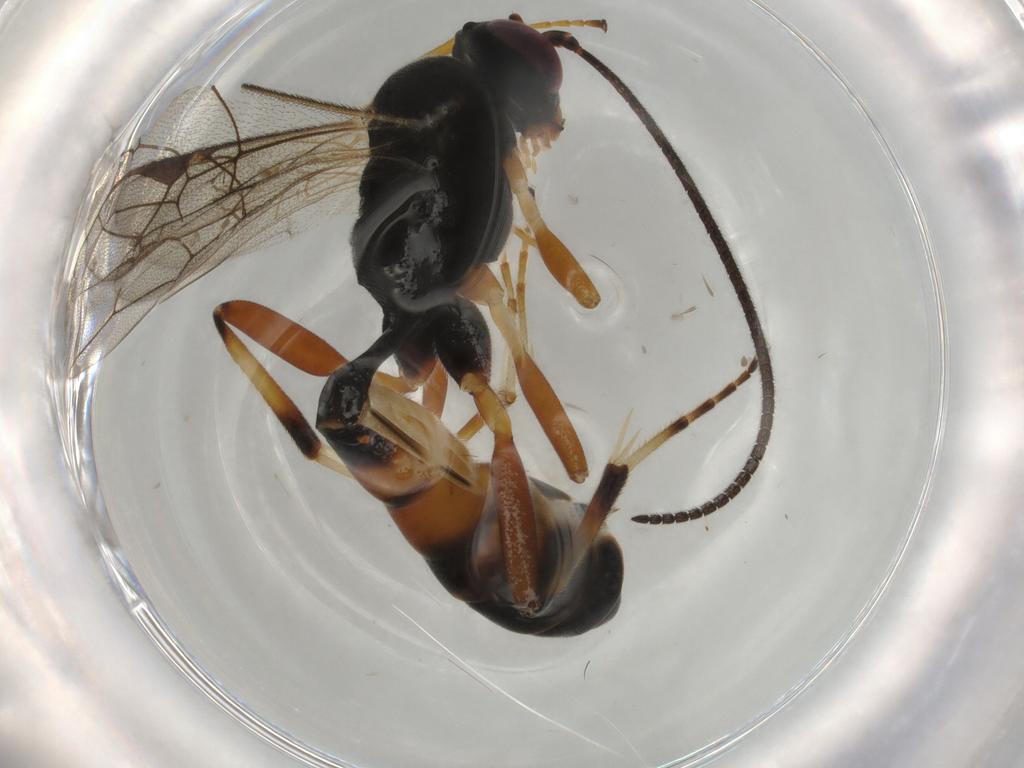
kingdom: Animalia
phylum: Arthropoda
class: Insecta
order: Hymenoptera
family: Ichneumonidae
